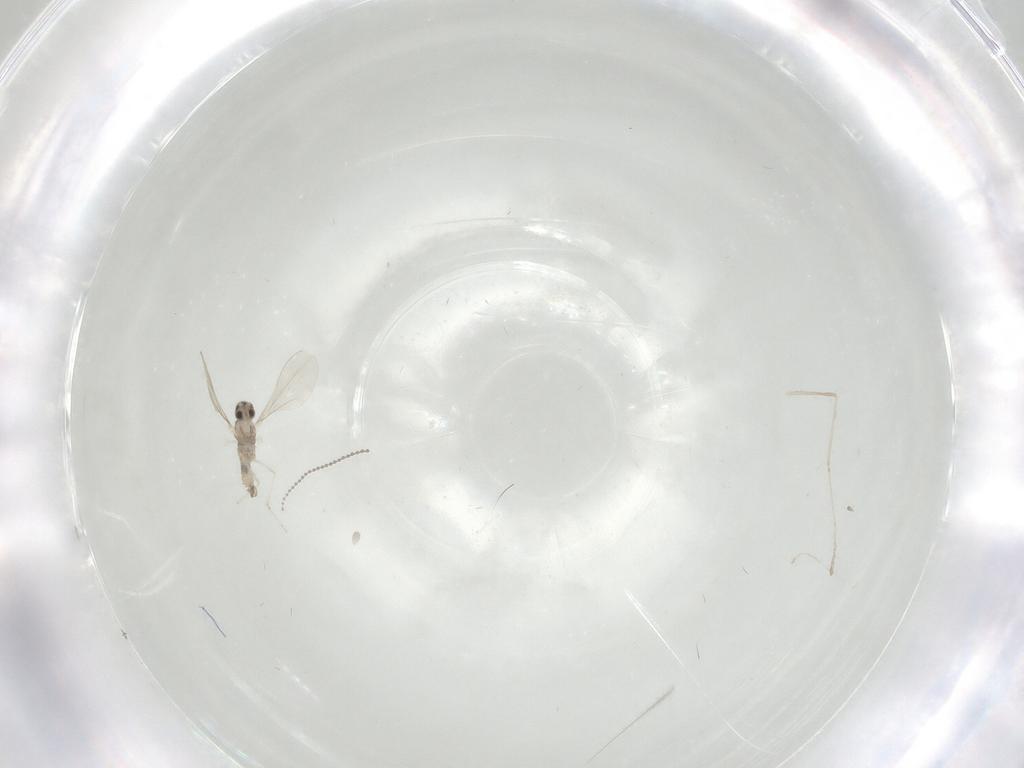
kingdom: Animalia
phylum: Arthropoda
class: Insecta
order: Diptera
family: Cecidomyiidae
